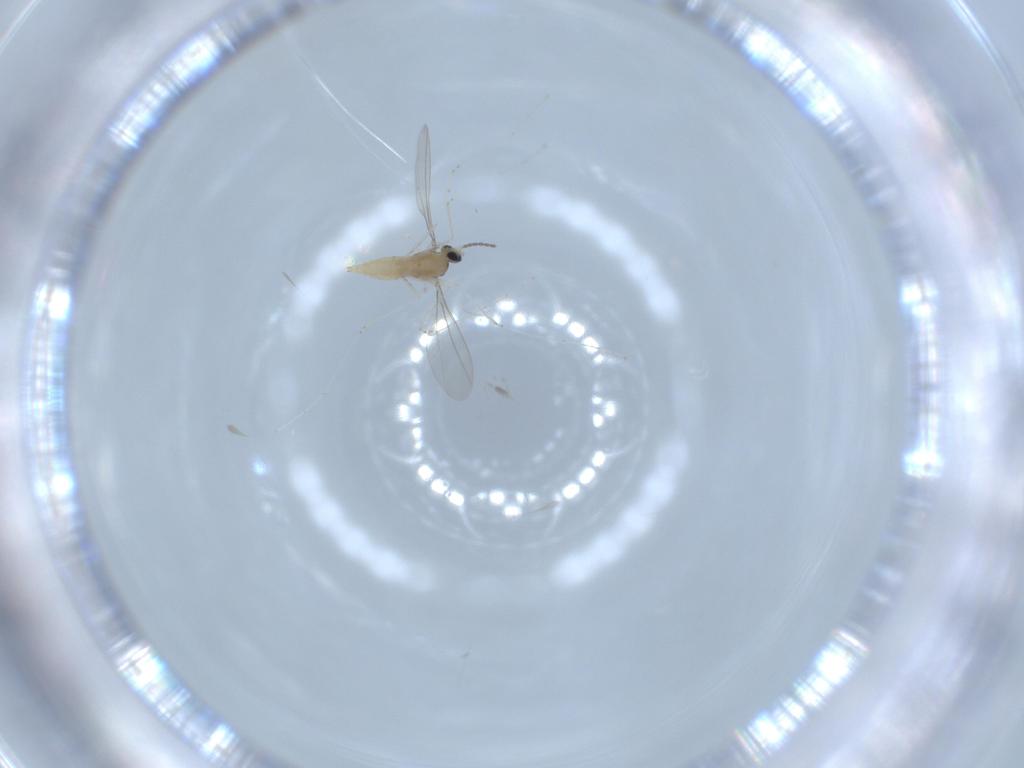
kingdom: Animalia
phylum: Arthropoda
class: Insecta
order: Diptera
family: Cecidomyiidae
